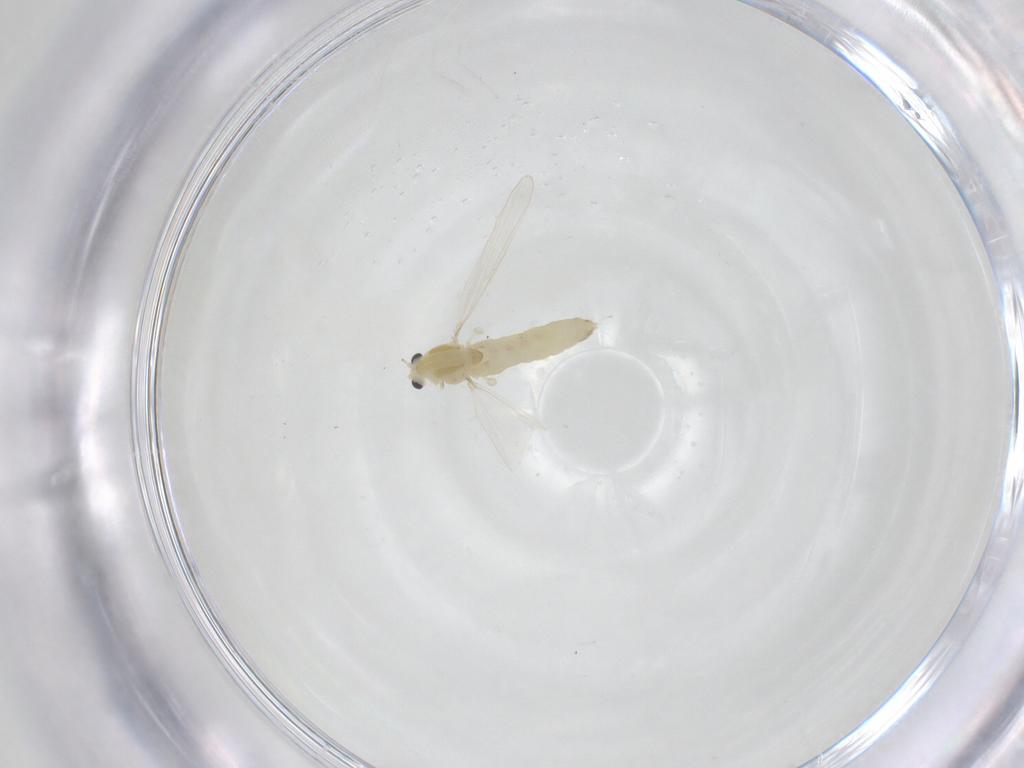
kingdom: Animalia
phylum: Arthropoda
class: Insecta
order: Diptera
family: Chironomidae
